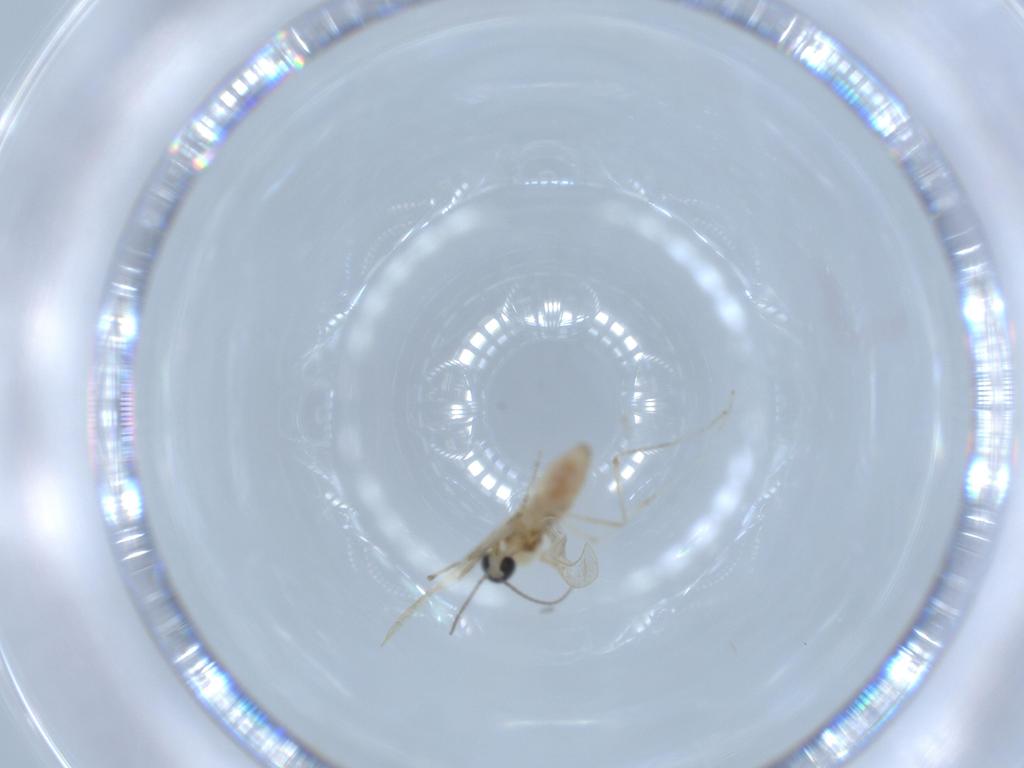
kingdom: Animalia
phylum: Arthropoda
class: Insecta
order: Diptera
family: Cecidomyiidae
